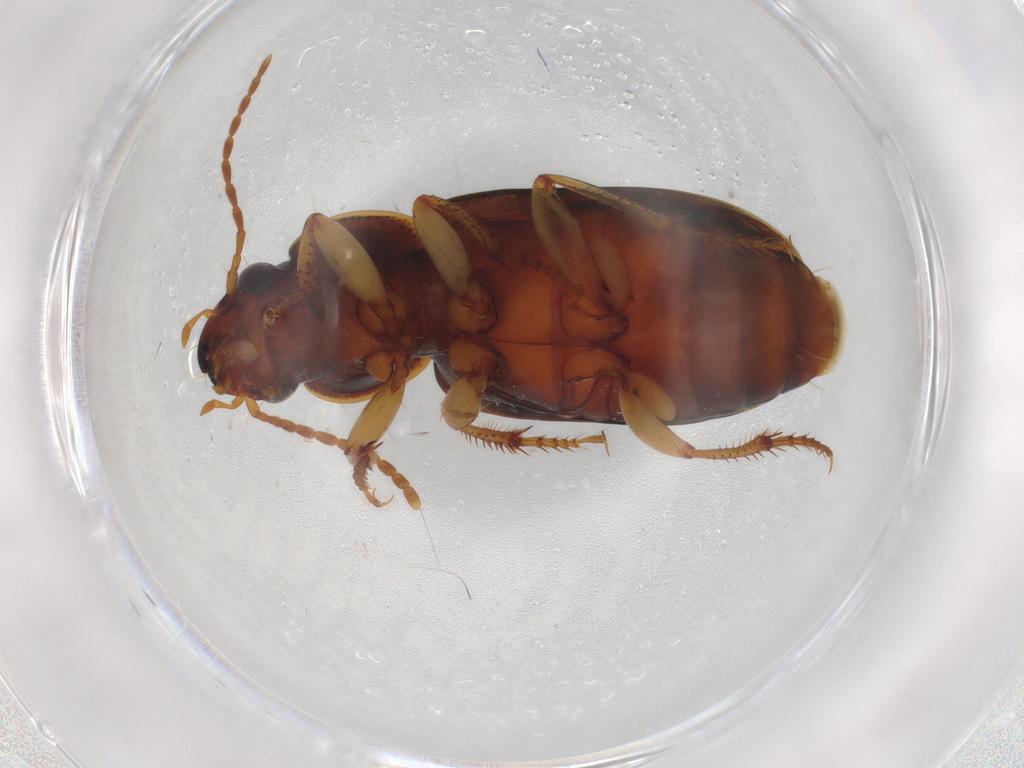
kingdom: Animalia
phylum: Arthropoda
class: Insecta
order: Coleoptera
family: Carabidae
